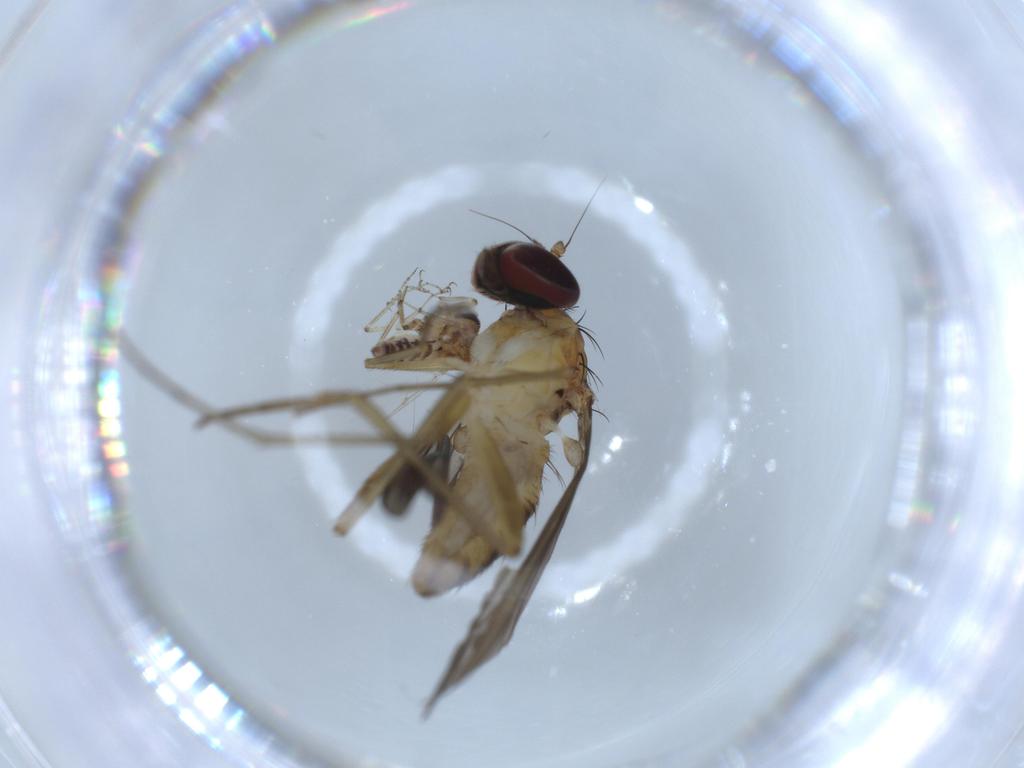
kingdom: Animalia
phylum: Arthropoda
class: Insecta
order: Diptera
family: Ceratopogonidae
